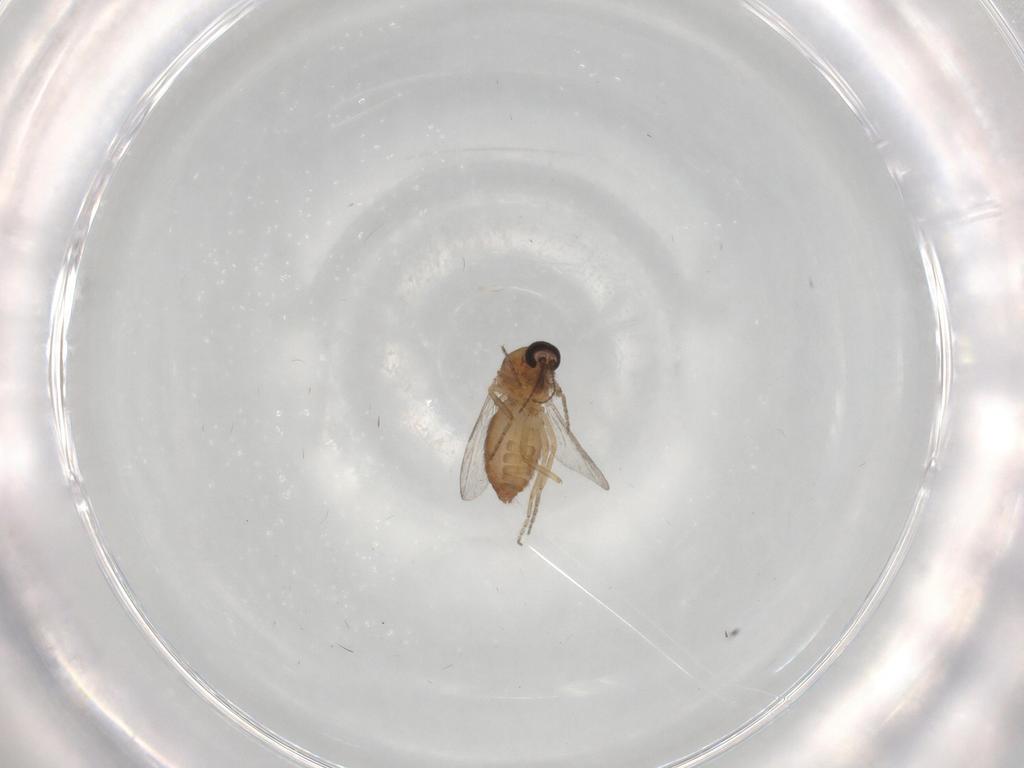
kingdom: Animalia
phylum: Arthropoda
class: Insecta
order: Diptera
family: Ceratopogonidae
